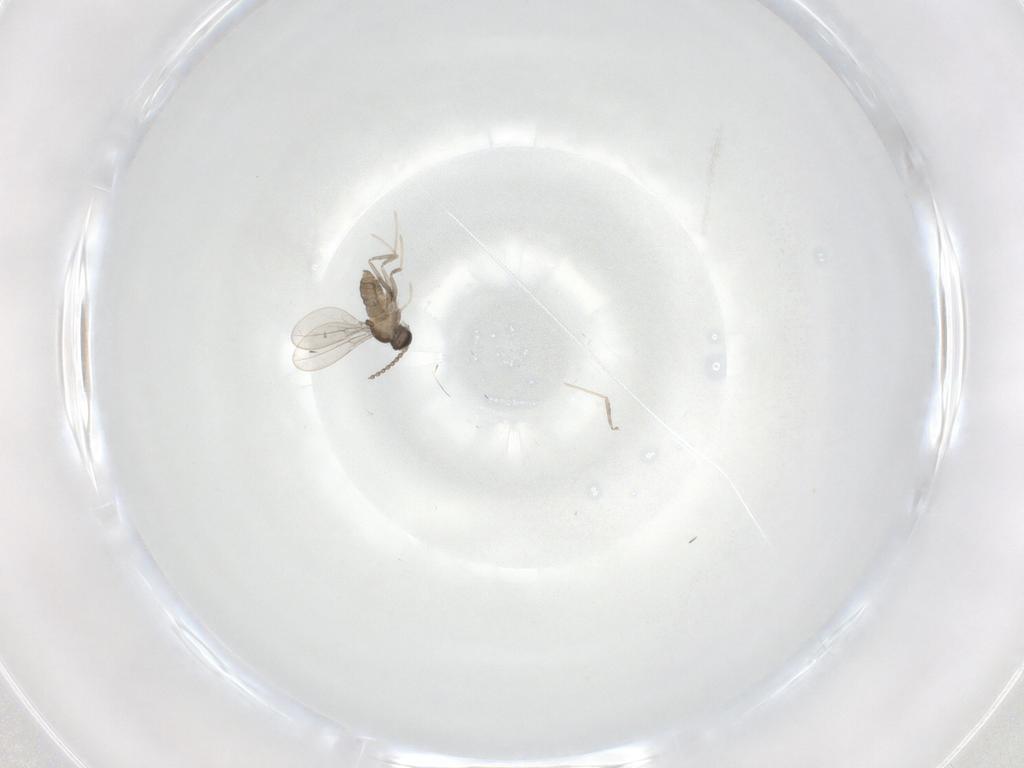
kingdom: Animalia
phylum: Arthropoda
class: Insecta
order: Diptera
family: Cecidomyiidae
